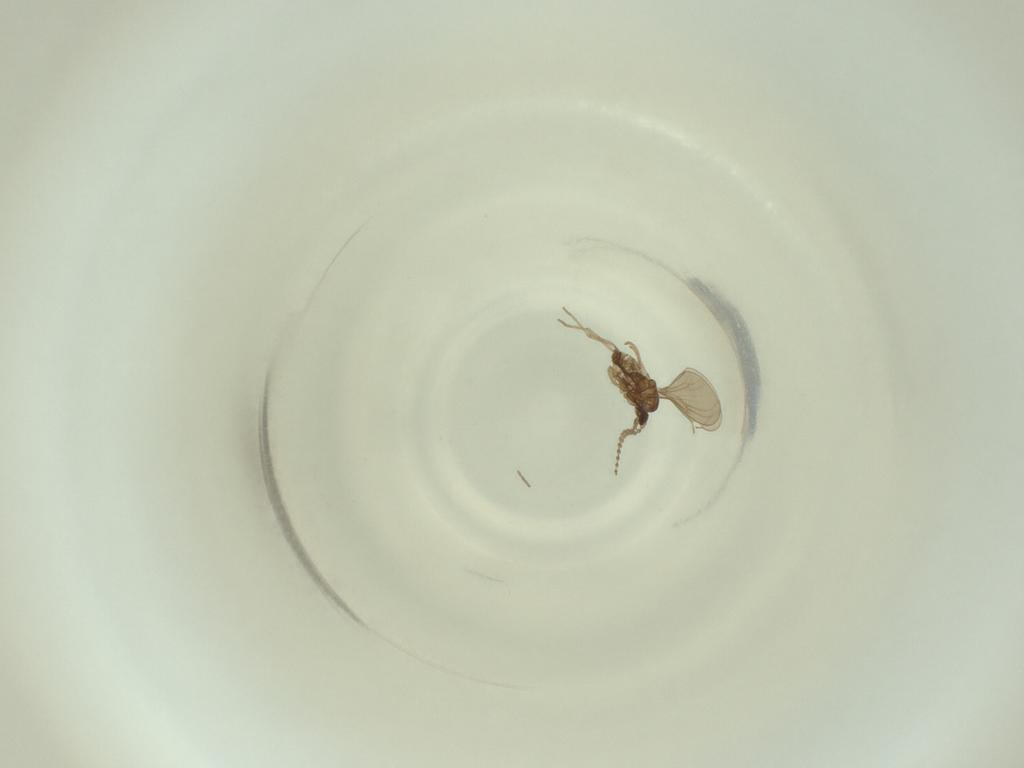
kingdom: Animalia
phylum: Arthropoda
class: Insecta
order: Diptera
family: Cecidomyiidae
